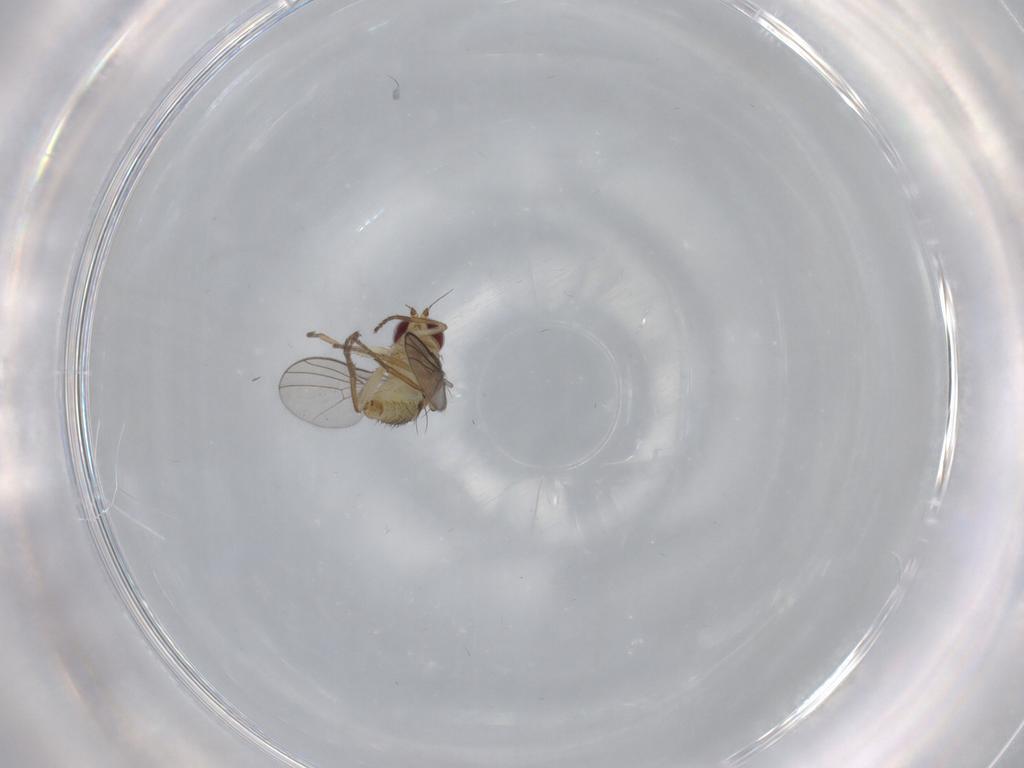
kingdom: Animalia
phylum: Arthropoda
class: Insecta
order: Diptera
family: Agromyzidae
